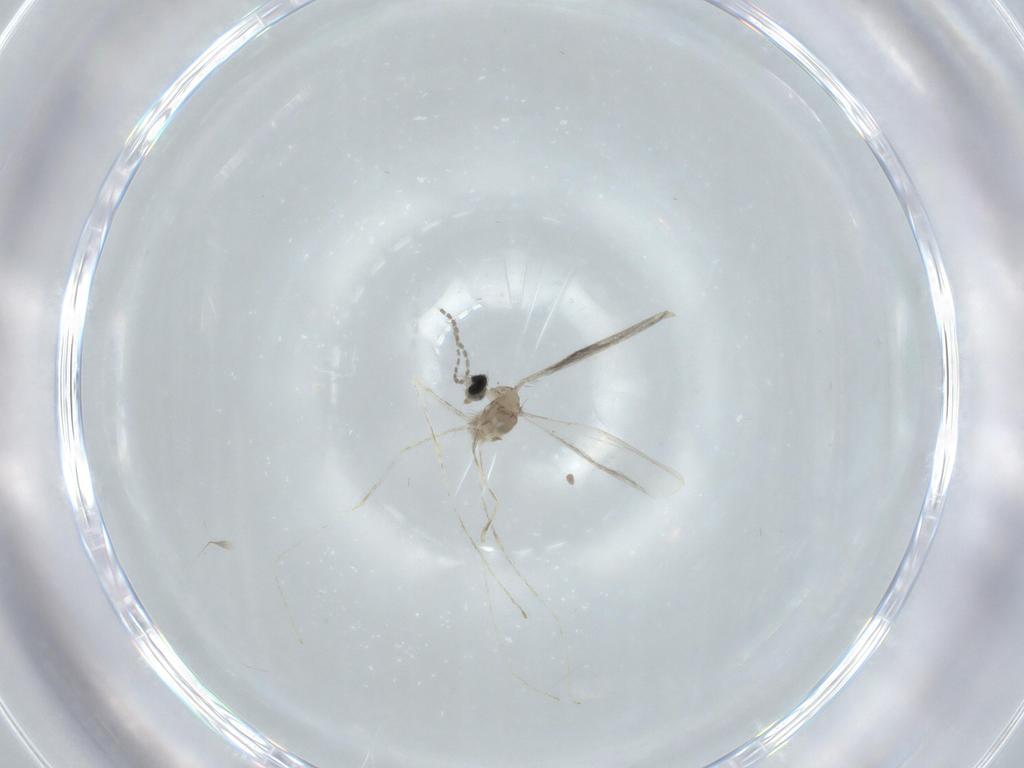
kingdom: Animalia
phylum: Arthropoda
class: Insecta
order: Diptera
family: Cecidomyiidae
